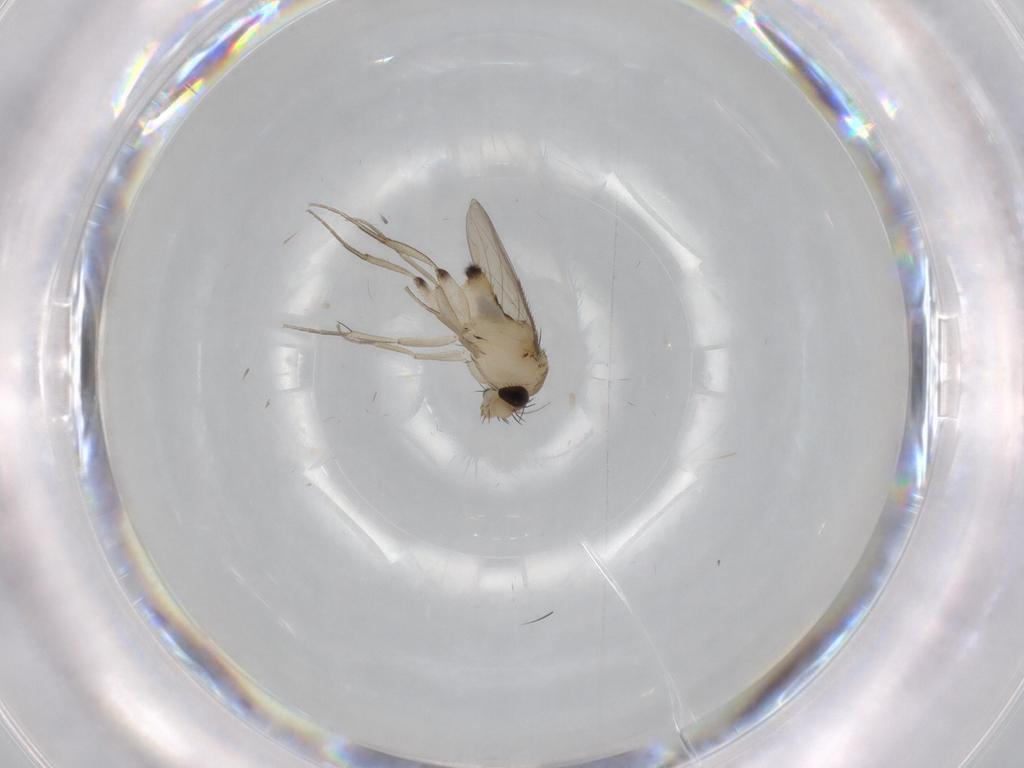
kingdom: Animalia
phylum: Arthropoda
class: Insecta
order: Diptera
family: Phoridae
